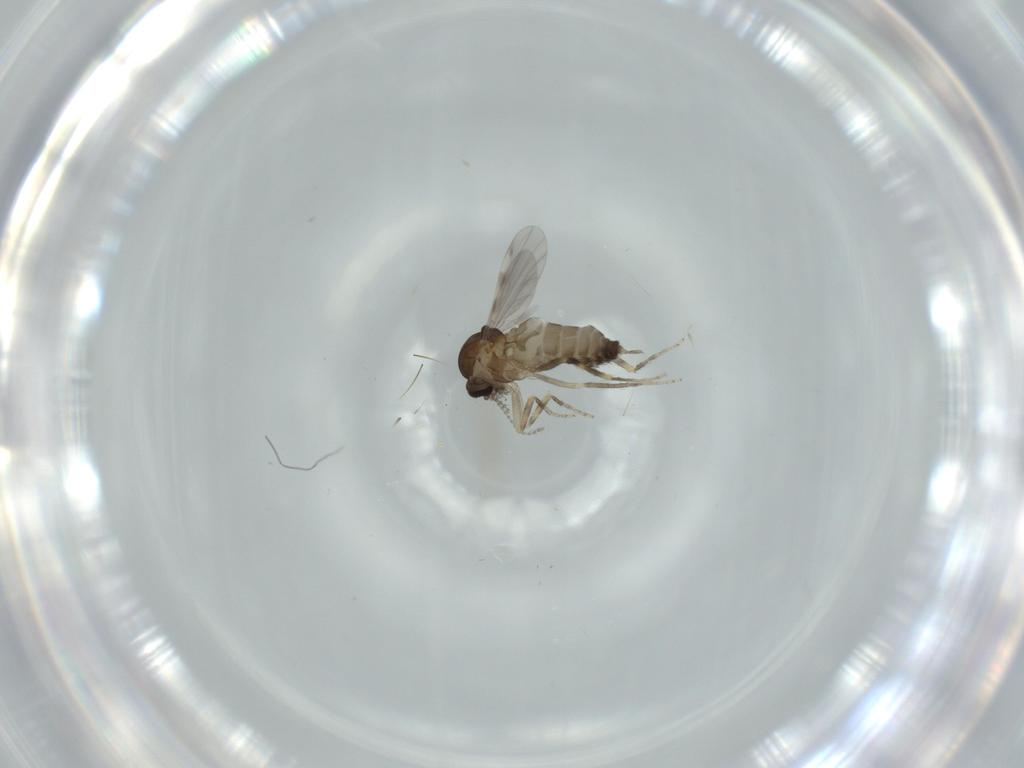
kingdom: Animalia
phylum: Arthropoda
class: Insecta
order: Diptera
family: Ceratopogonidae
